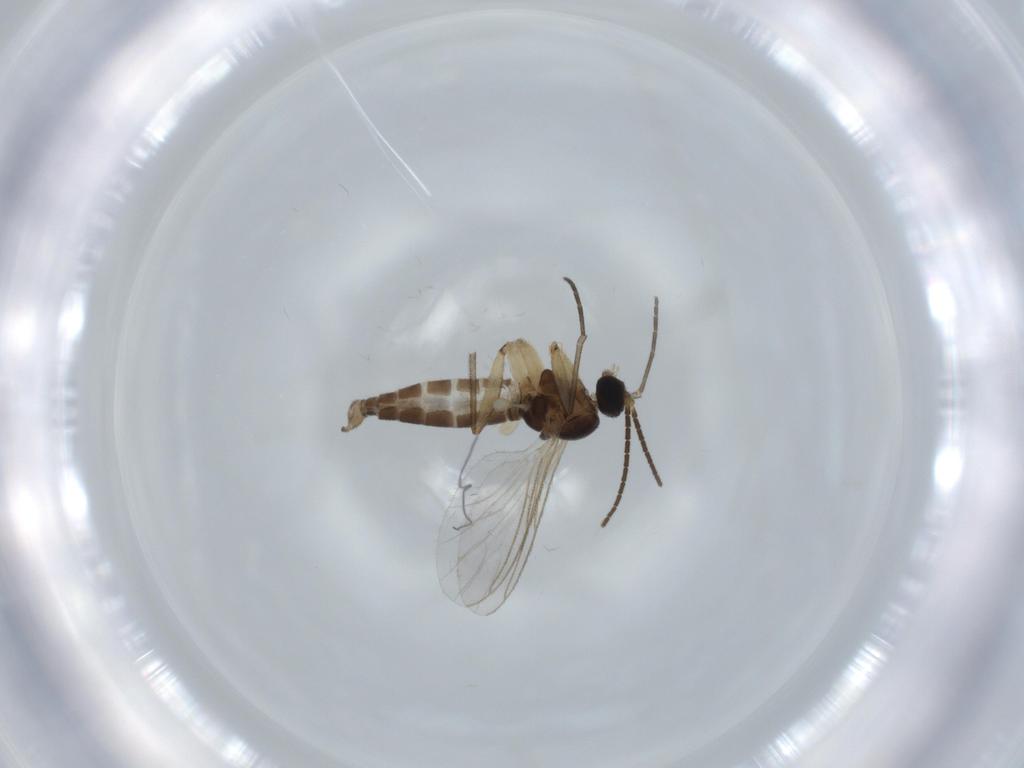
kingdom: Animalia
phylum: Arthropoda
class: Insecta
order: Diptera
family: Sciaridae
